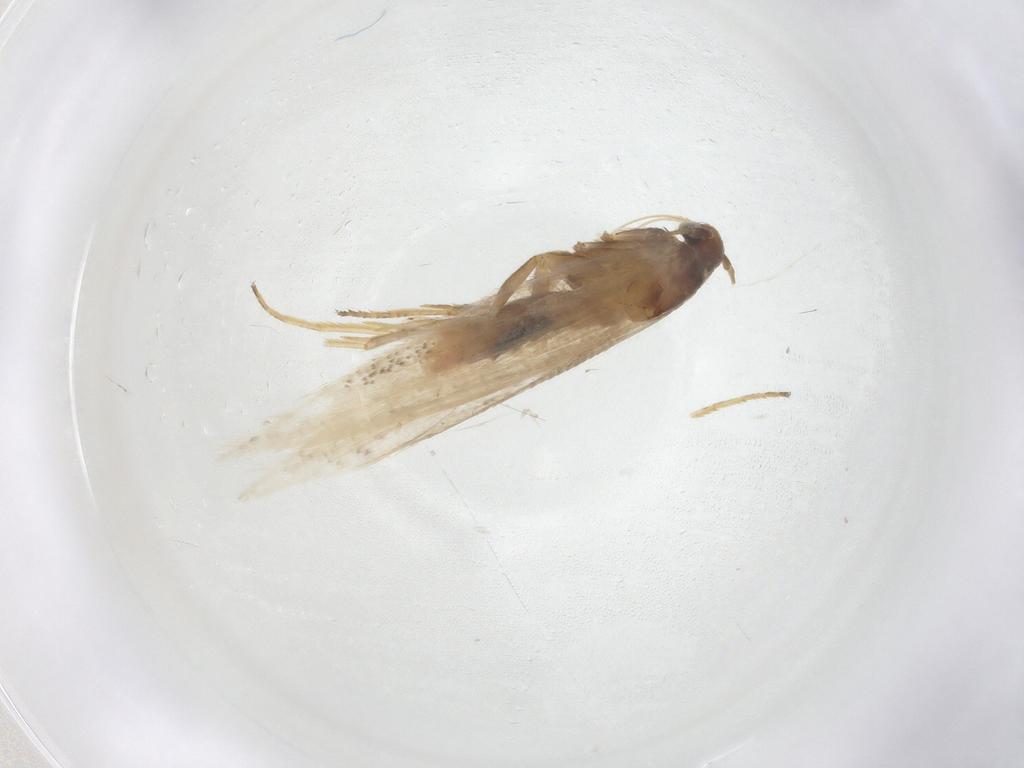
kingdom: Animalia
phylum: Arthropoda
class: Insecta
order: Lepidoptera
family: Gelechiidae
